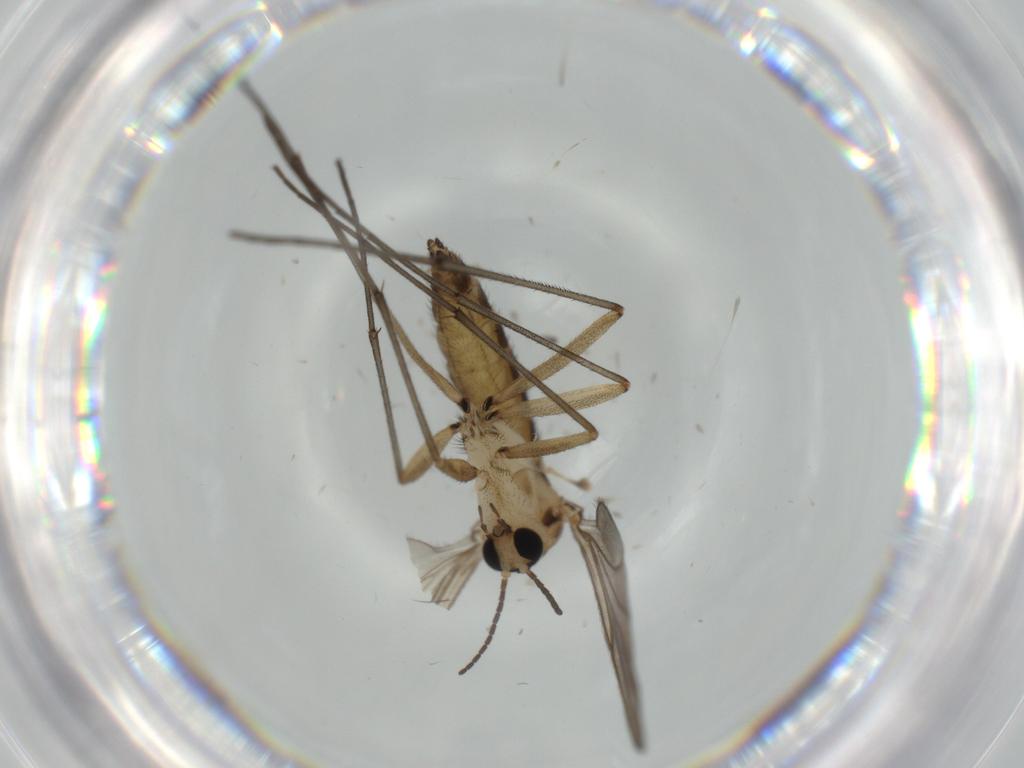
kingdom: Animalia
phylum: Arthropoda
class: Insecta
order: Diptera
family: Sciaridae
